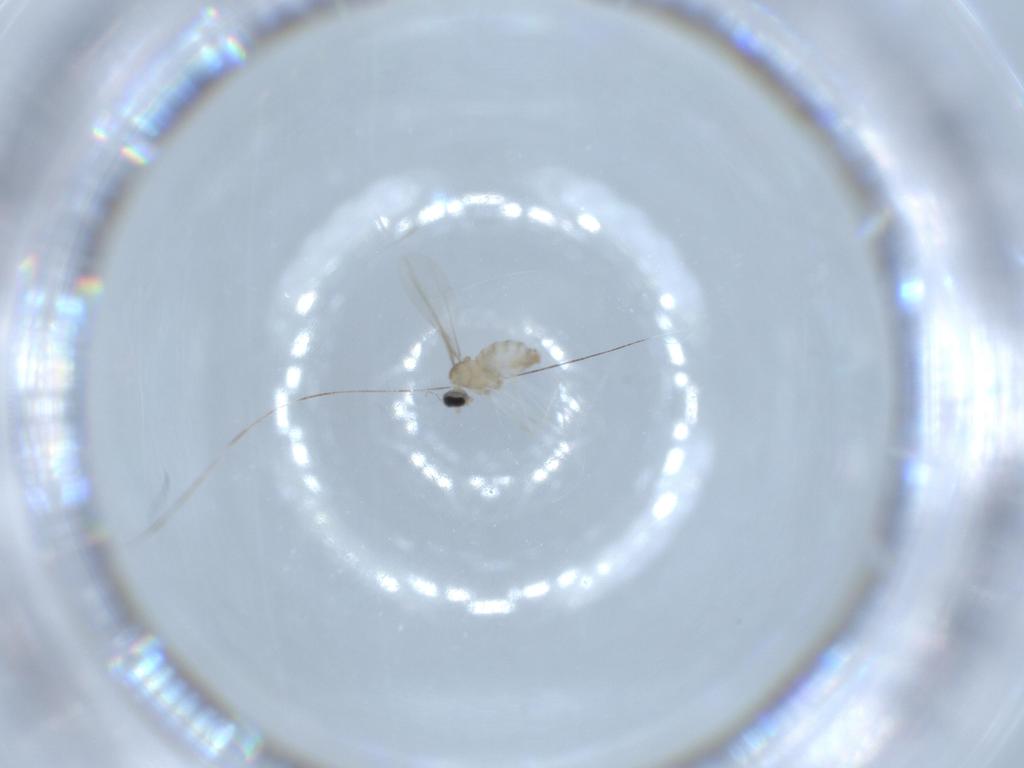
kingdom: Animalia
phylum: Arthropoda
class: Insecta
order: Diptera
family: Cecidomyiidae
